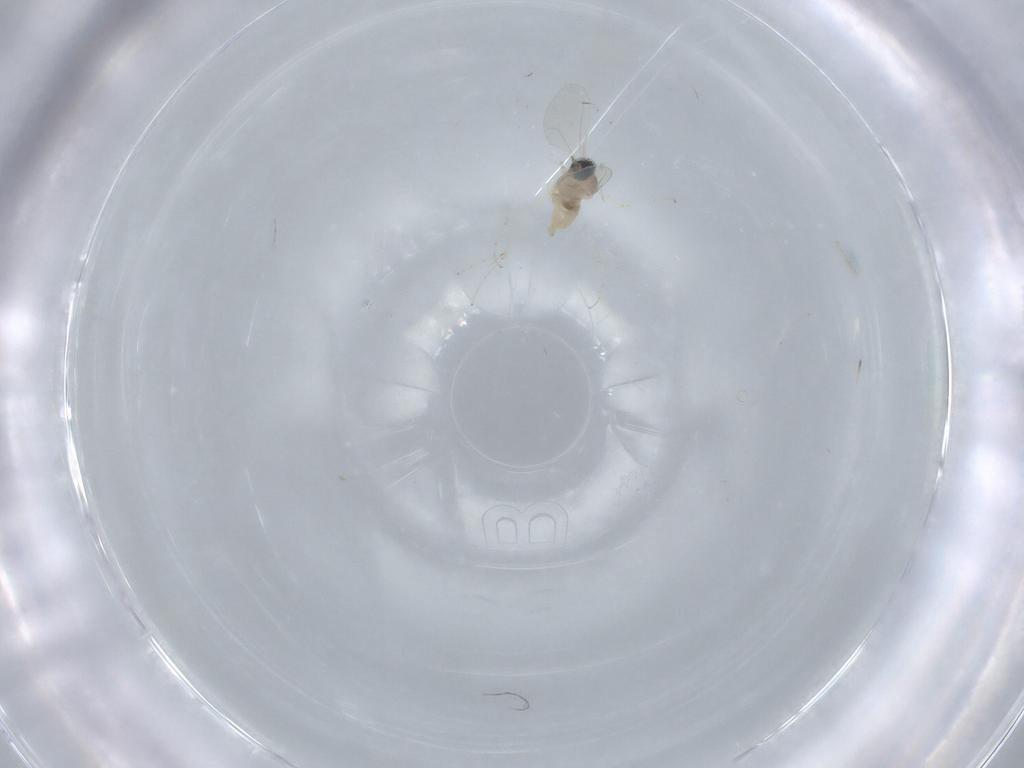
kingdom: Animalia
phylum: Arthropoda
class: Insecta
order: Diptera
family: Cecidomyiidae
